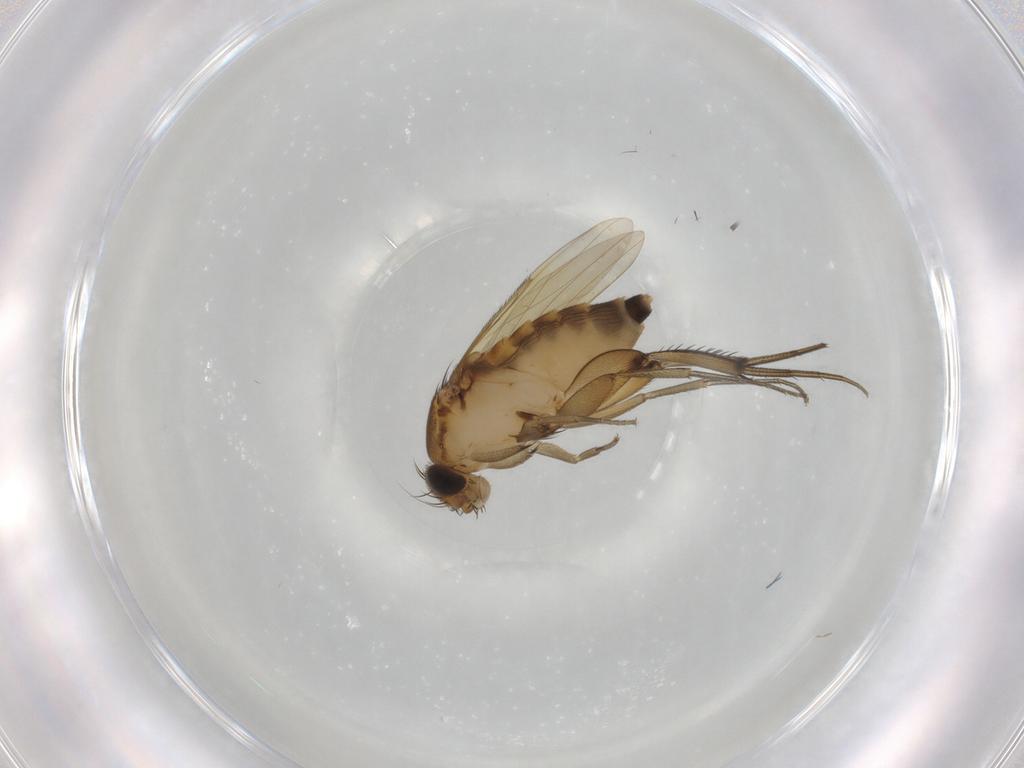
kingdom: Animalia
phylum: Arthropoda
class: Insecta
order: Diptera
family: Phoridae
